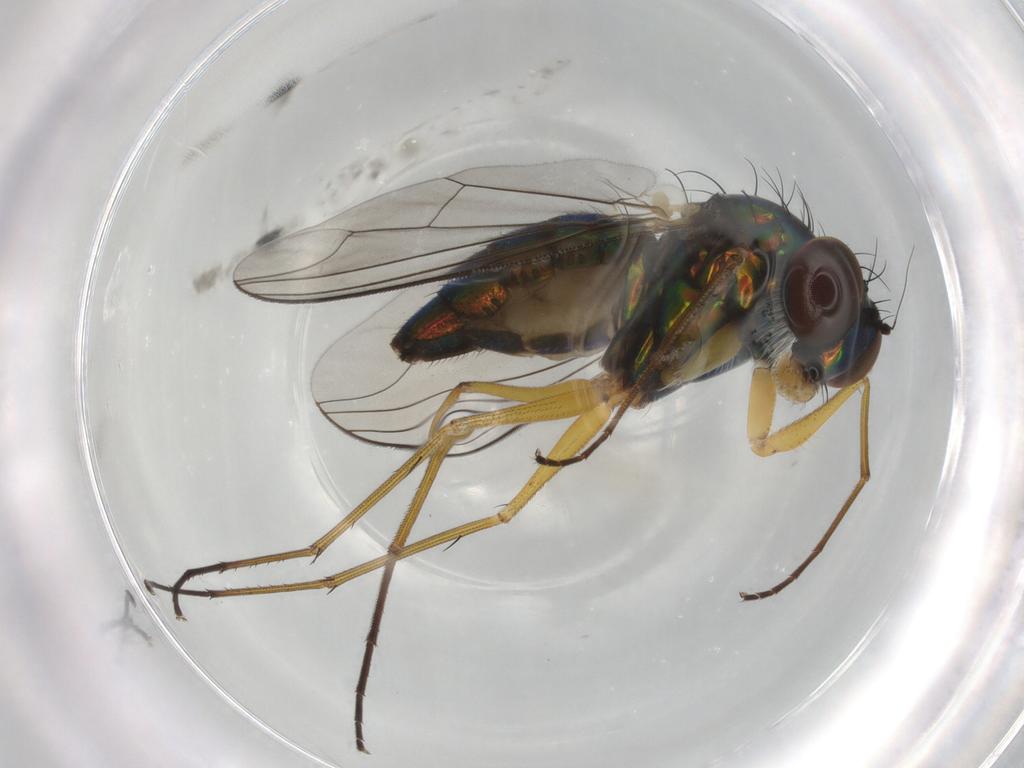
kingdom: Animalia
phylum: Arthropoda
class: Insecta
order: Diptera
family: Dolichopodidae
